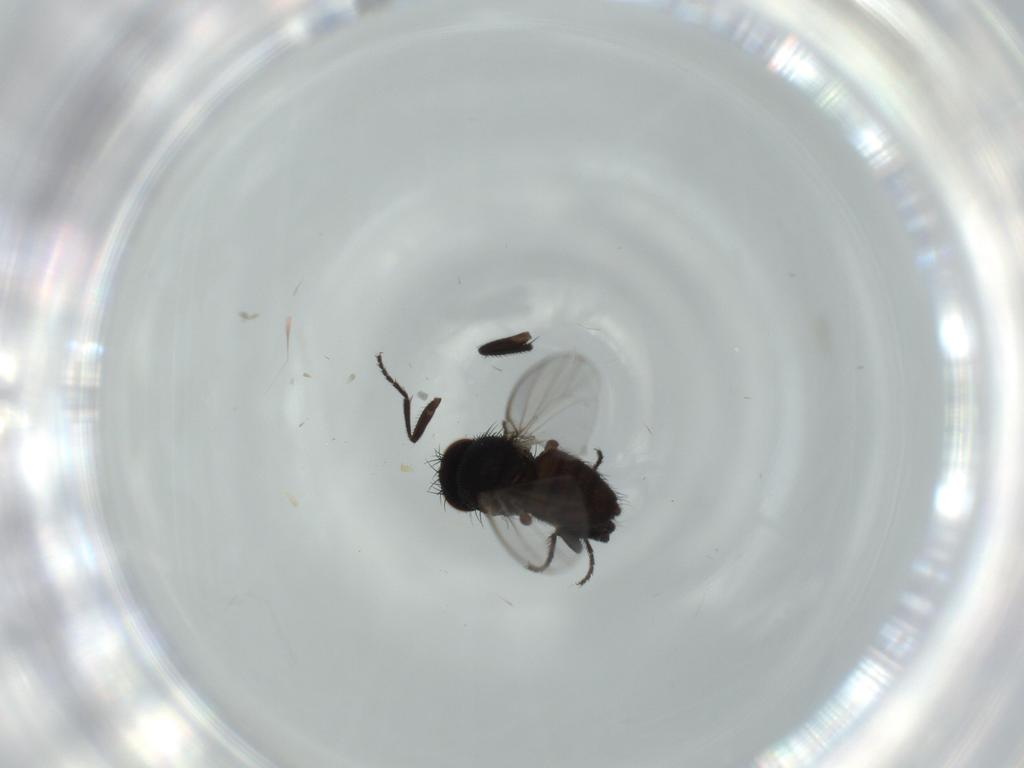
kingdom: Animalia
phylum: Arthropoda
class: Insecta
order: Diptera
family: Milichiidae
